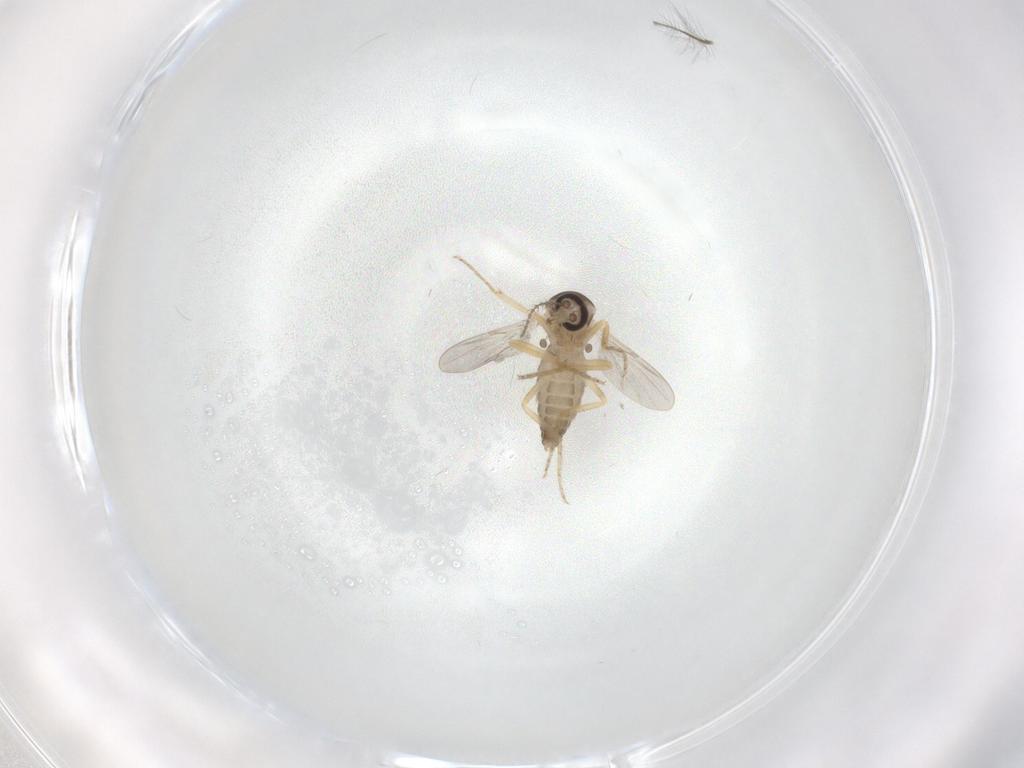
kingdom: Animalia
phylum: Arthropoda
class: Insecta
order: Diptera
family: Ceratopogonidae
